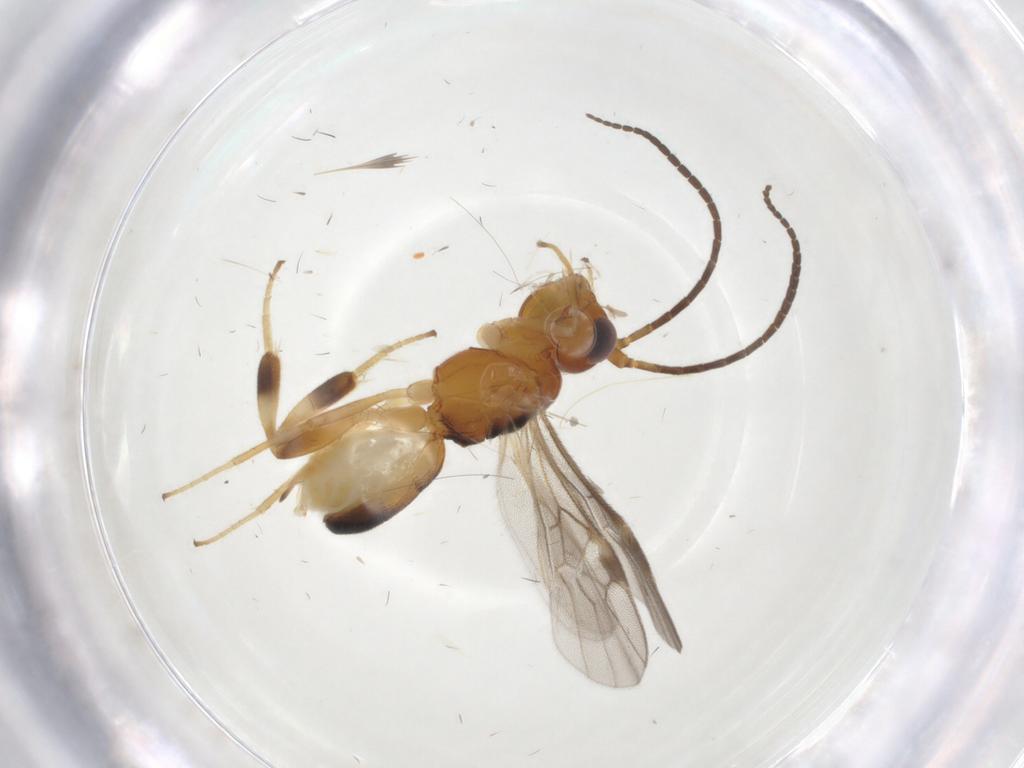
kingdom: Animalia
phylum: Arthropoda
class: Insecta
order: Hymenoptera
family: Braconidae
